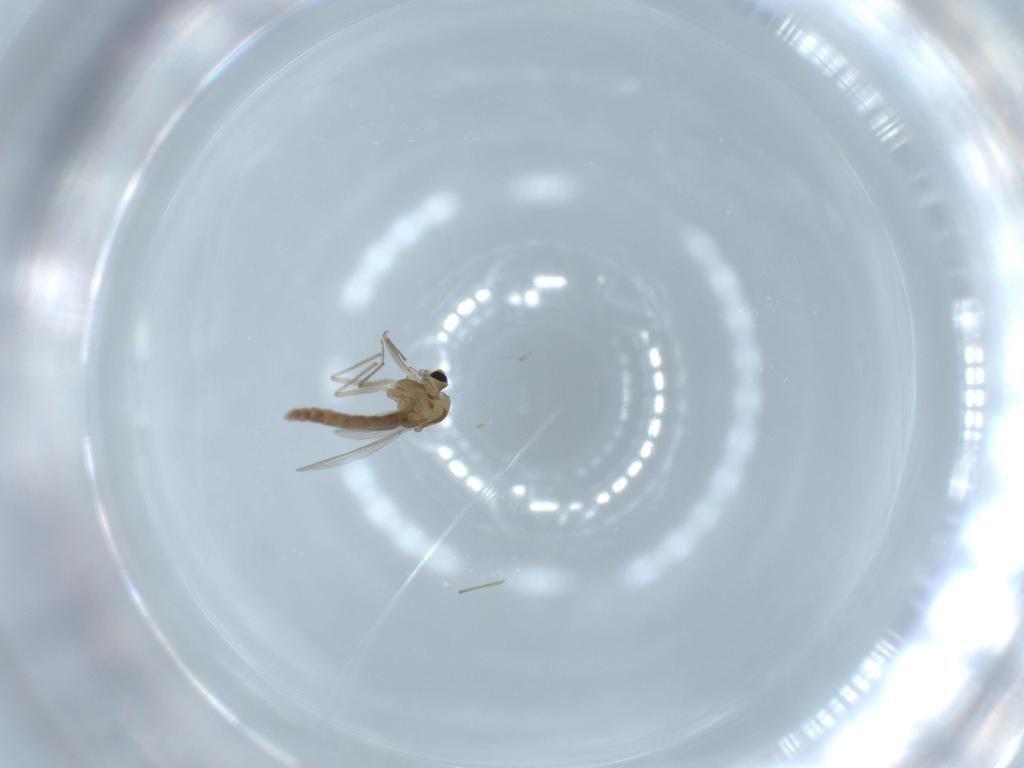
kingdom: Animalia
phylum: Arthropoda
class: Insecta
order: Diptera
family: Chironomidae
